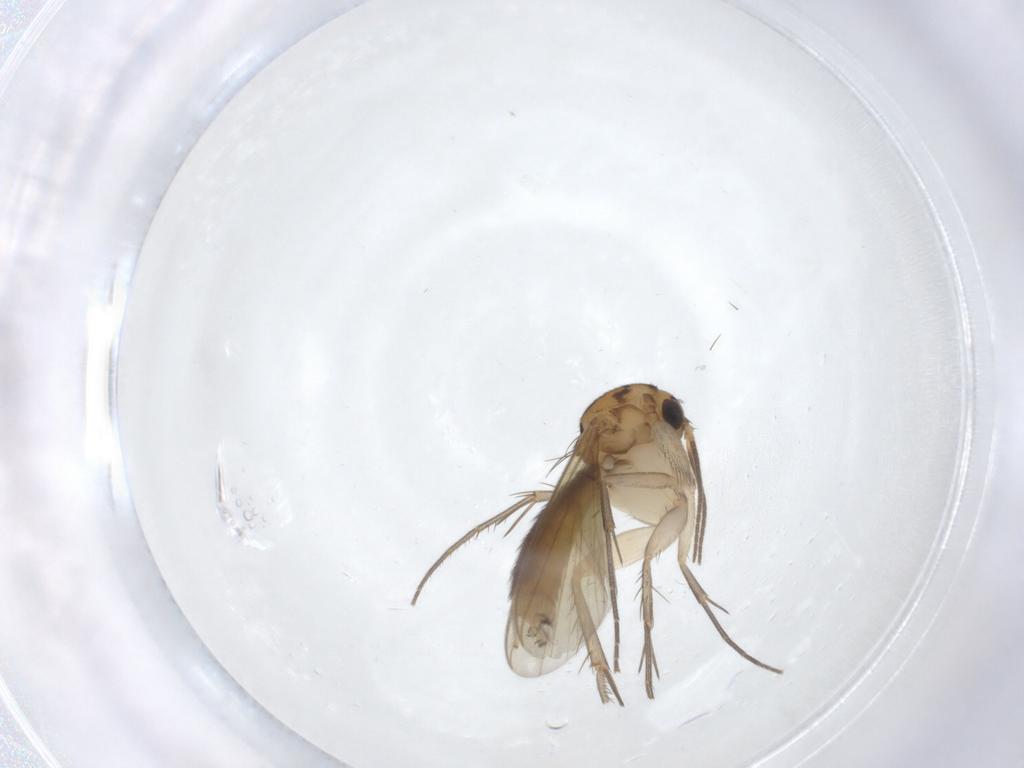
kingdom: Animalia
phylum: Arthropoda
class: Insecta
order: Diptera
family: Mycetophilidae
